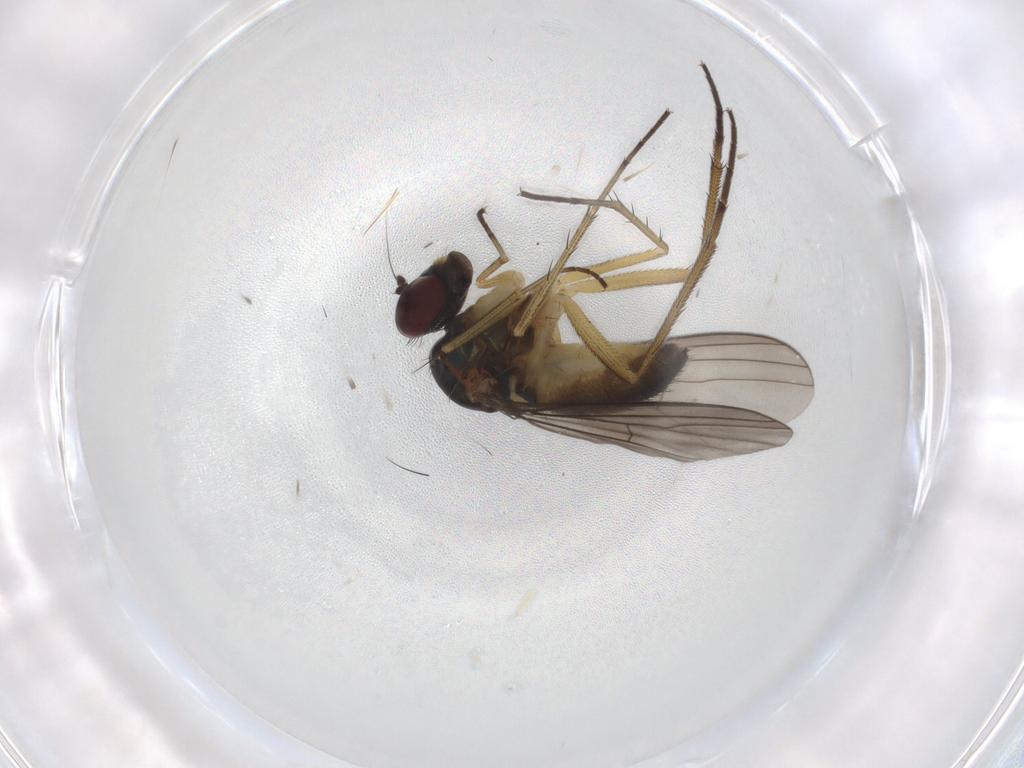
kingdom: Animalia
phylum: Arthropoda
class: Insecta
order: Diptera
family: Dolichopodidae
